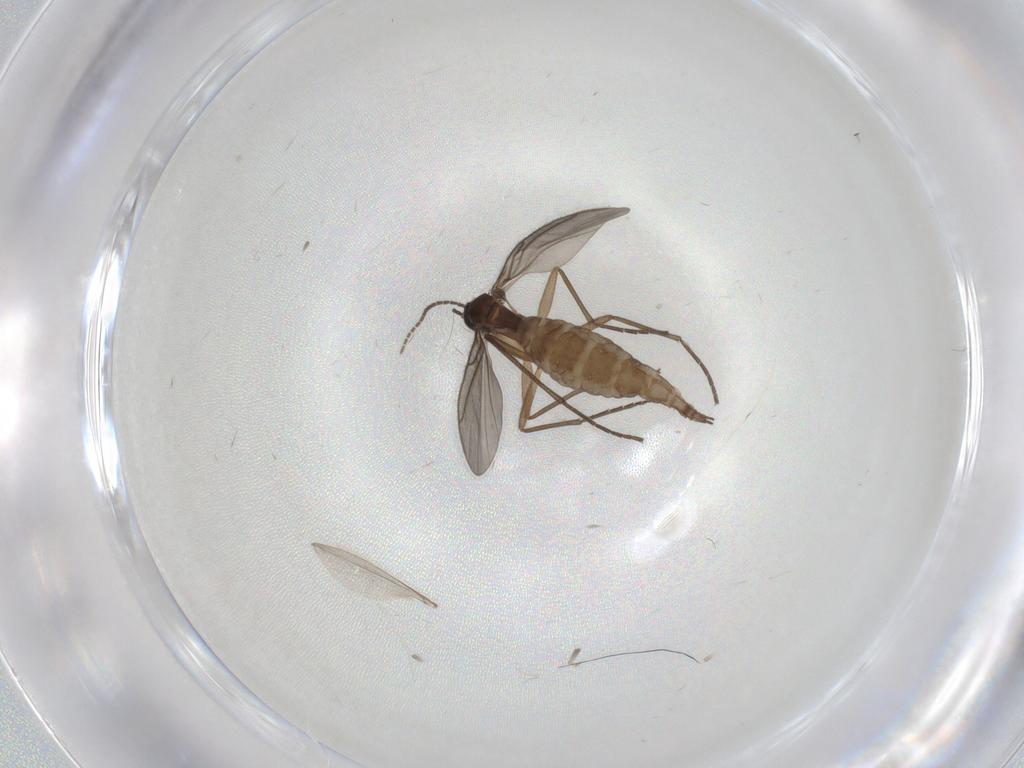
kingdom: Animalia
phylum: Arthropoda
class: Insecta
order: Diptera
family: Sciaridae
